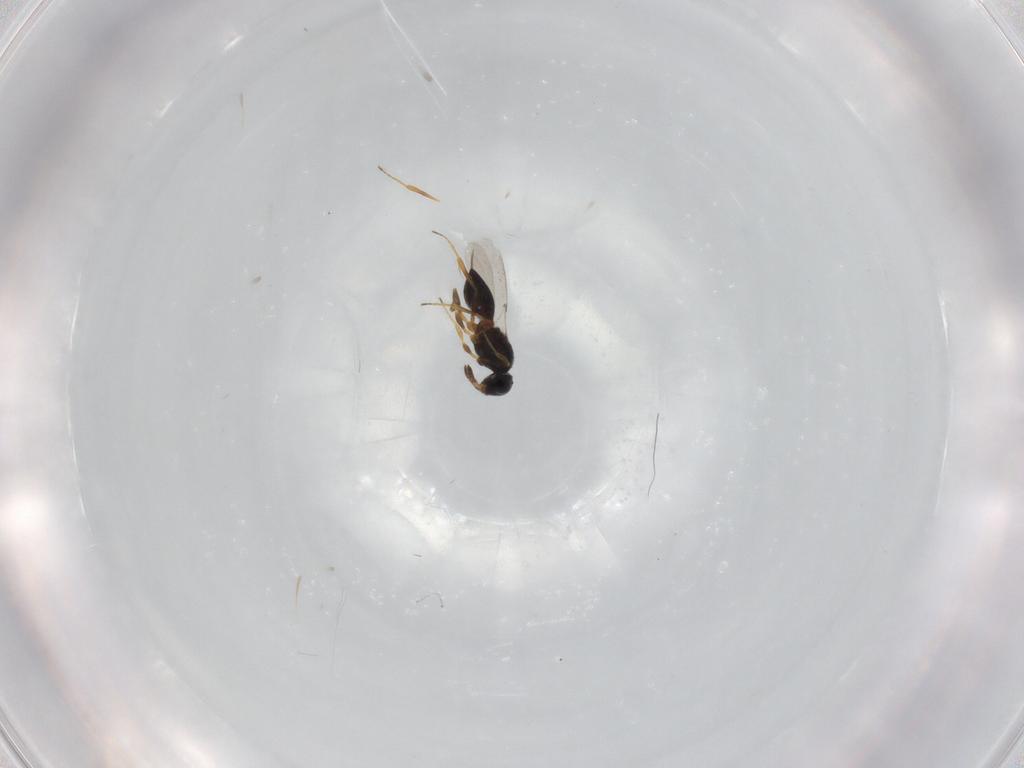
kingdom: Animalia
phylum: Arthropoda
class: Insecta
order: Hymenoptera
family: Platygastridae
